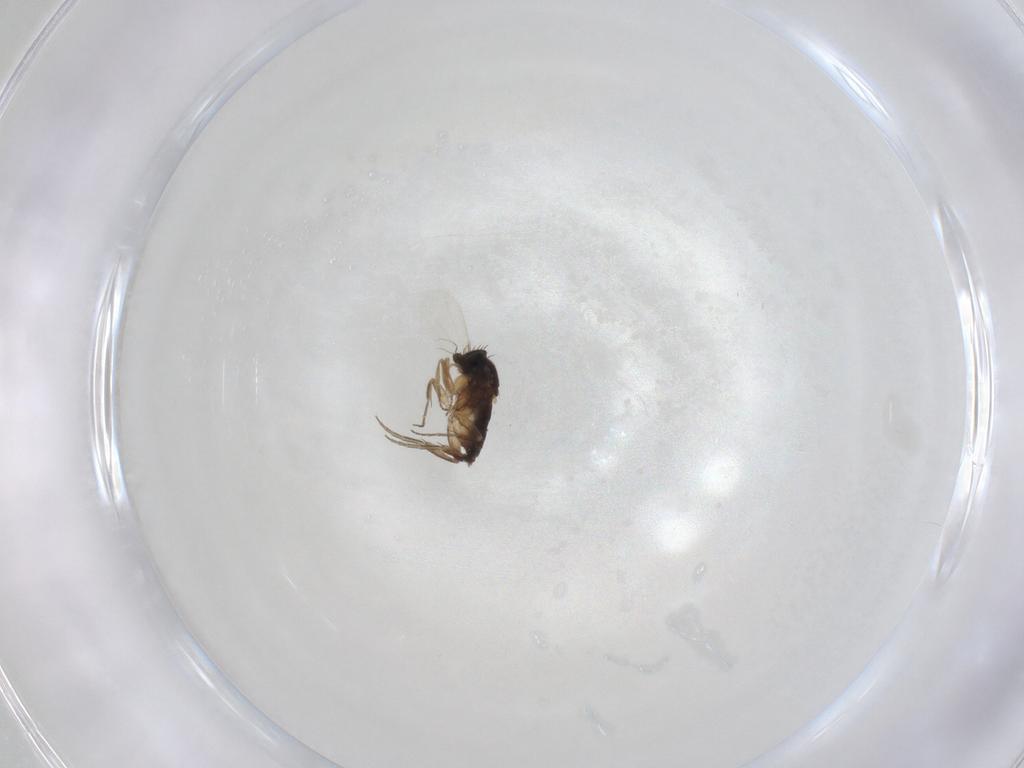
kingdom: Animalia
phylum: Arthropoda
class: Insecta
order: Diptera
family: Phoridae
